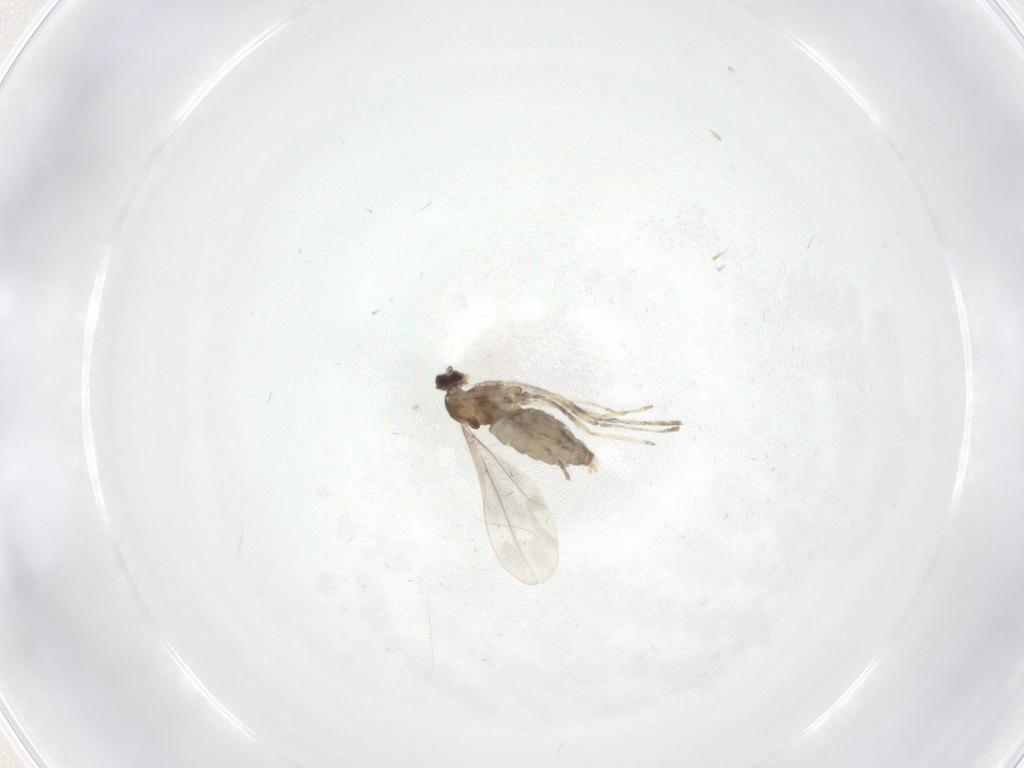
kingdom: Animalia
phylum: Arthropoda
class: Insecta
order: Diptera
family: Cecidomyiidae
